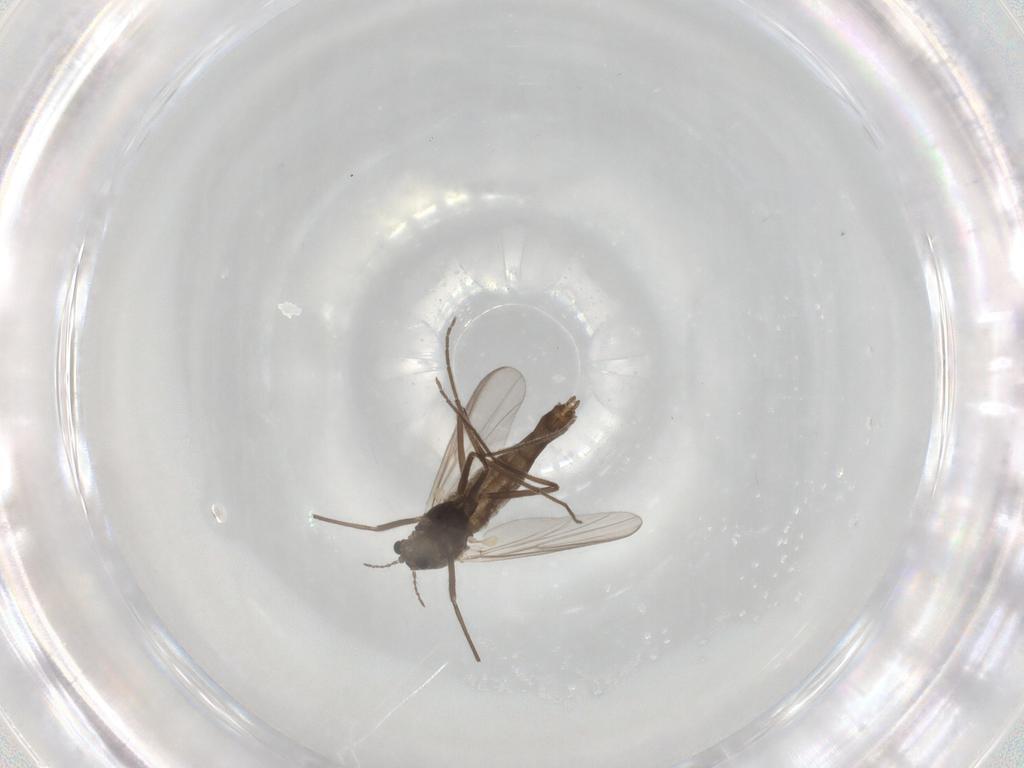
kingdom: Animalia
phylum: Arthropoda
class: Insecta
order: Diptera
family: Chironomidae
